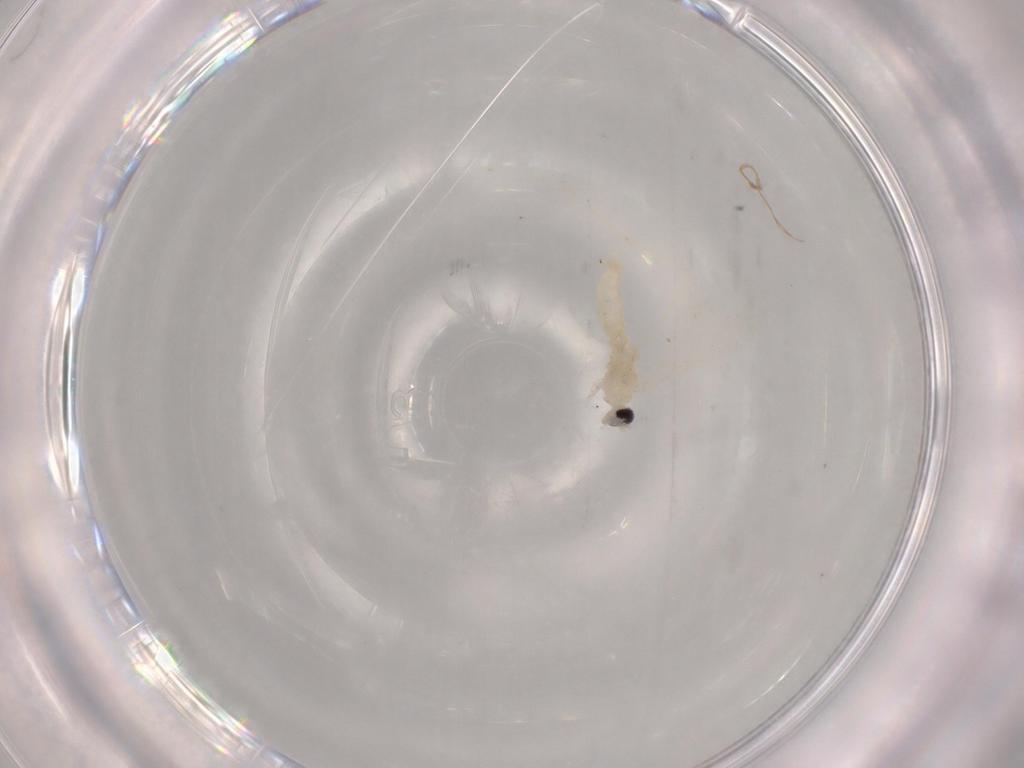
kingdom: Animalia
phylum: Arthropoda
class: Insecta
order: Diptera
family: Cecidomyiidae
